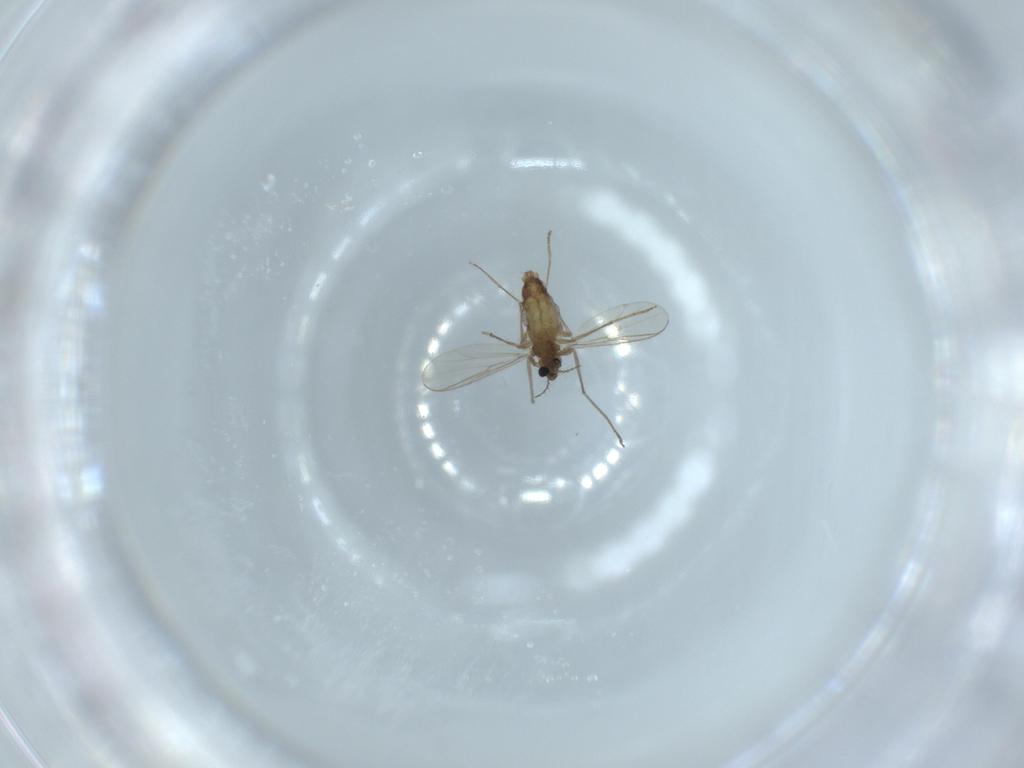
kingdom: Animalia
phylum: Arthropoda
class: Insecta
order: Diptera
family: Chironomidae
